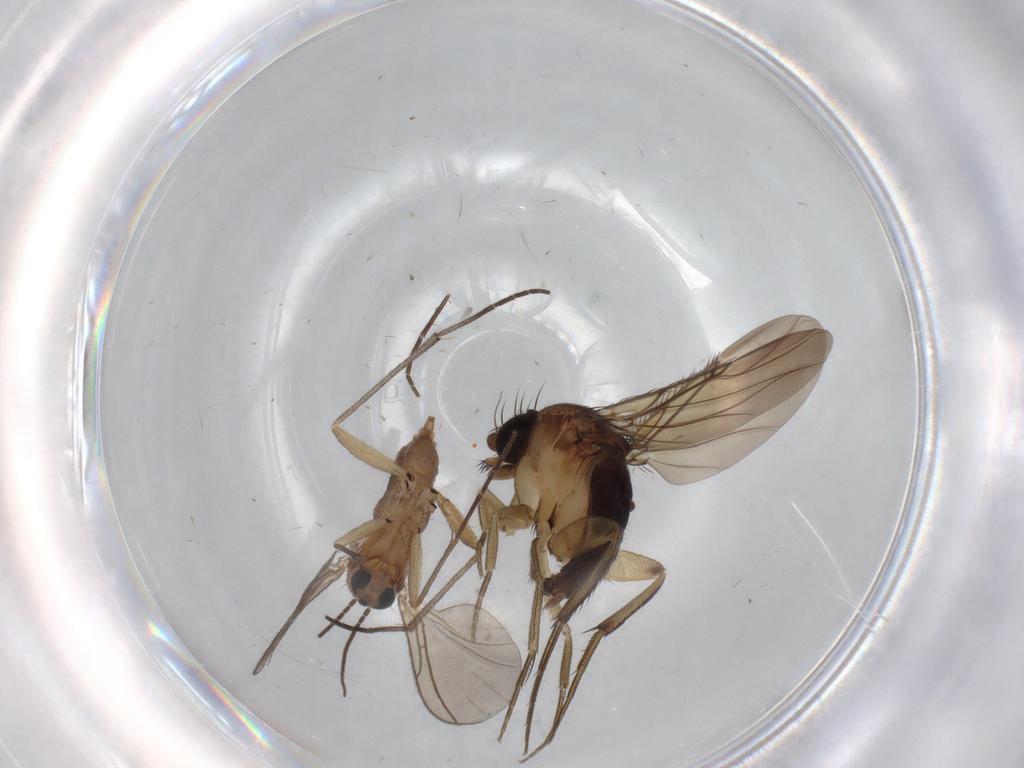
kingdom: Animalia
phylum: Arthropoda
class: Insecta
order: Diptera
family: Sciaridae
